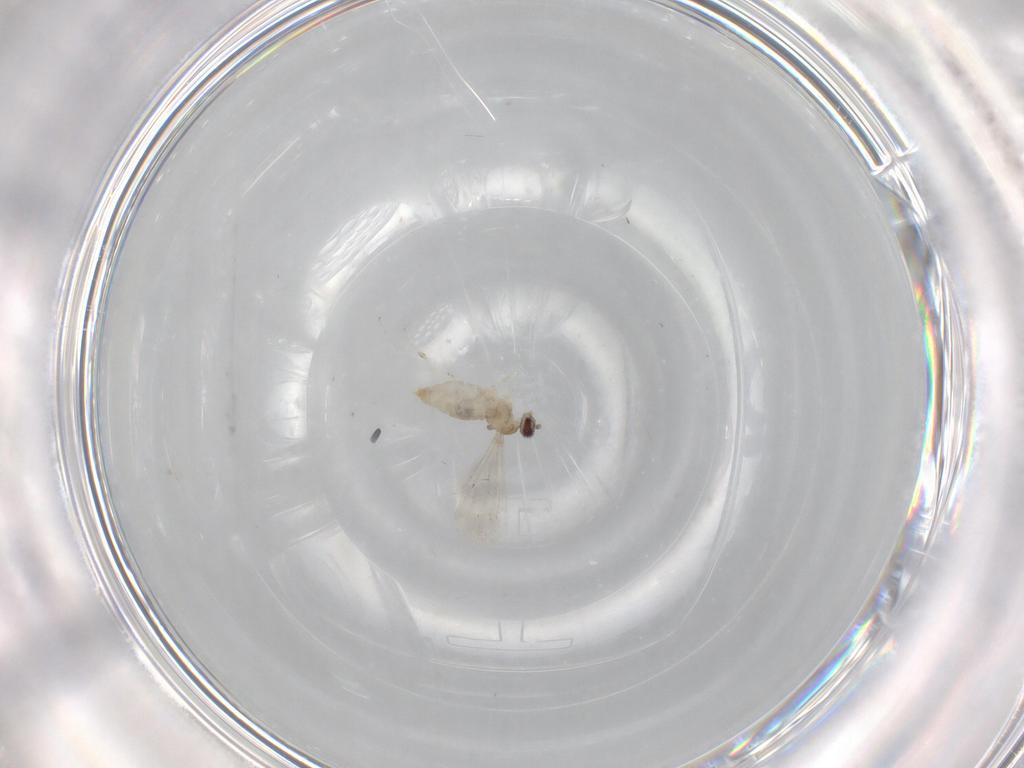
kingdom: Animalia
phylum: Arthropoda
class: Insecta
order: Diptera
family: Cecidomyiidae
